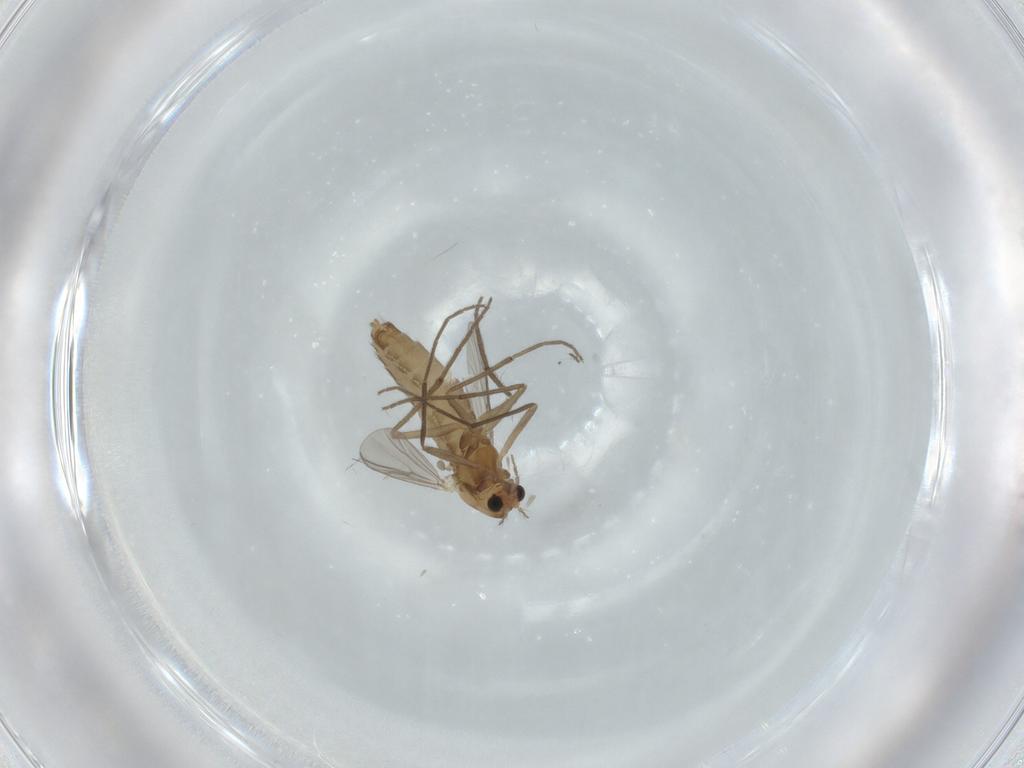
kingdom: Animalia
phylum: Arthropoda
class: Insecta
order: Diptera
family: Chironomidae
